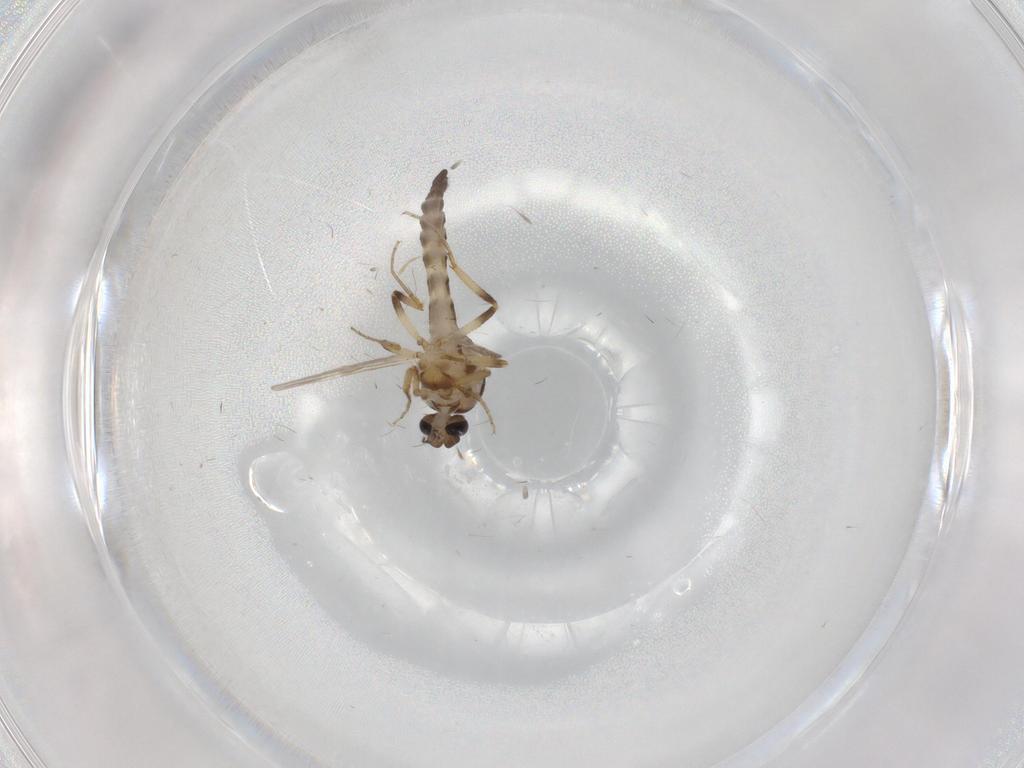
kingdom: Animalia
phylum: Arthropoda
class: Insecta
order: Diptera
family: Ceratopogonidae
